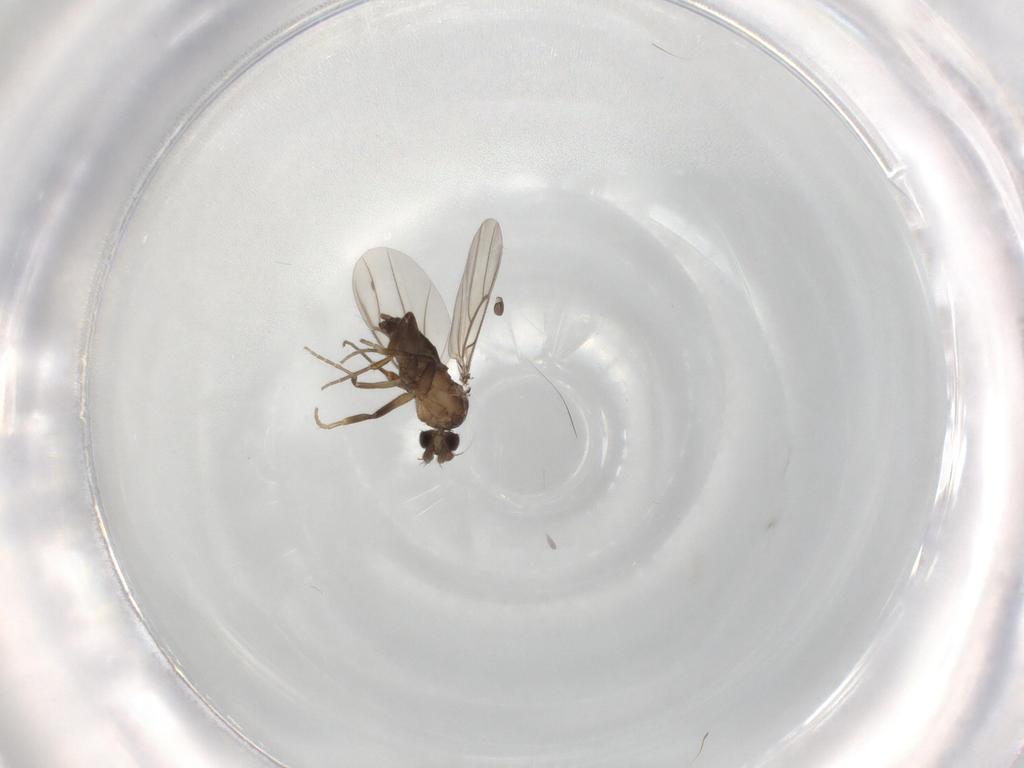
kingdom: Animalia
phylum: Arthropoda
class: Insecta
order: Diptera
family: Phoridae
